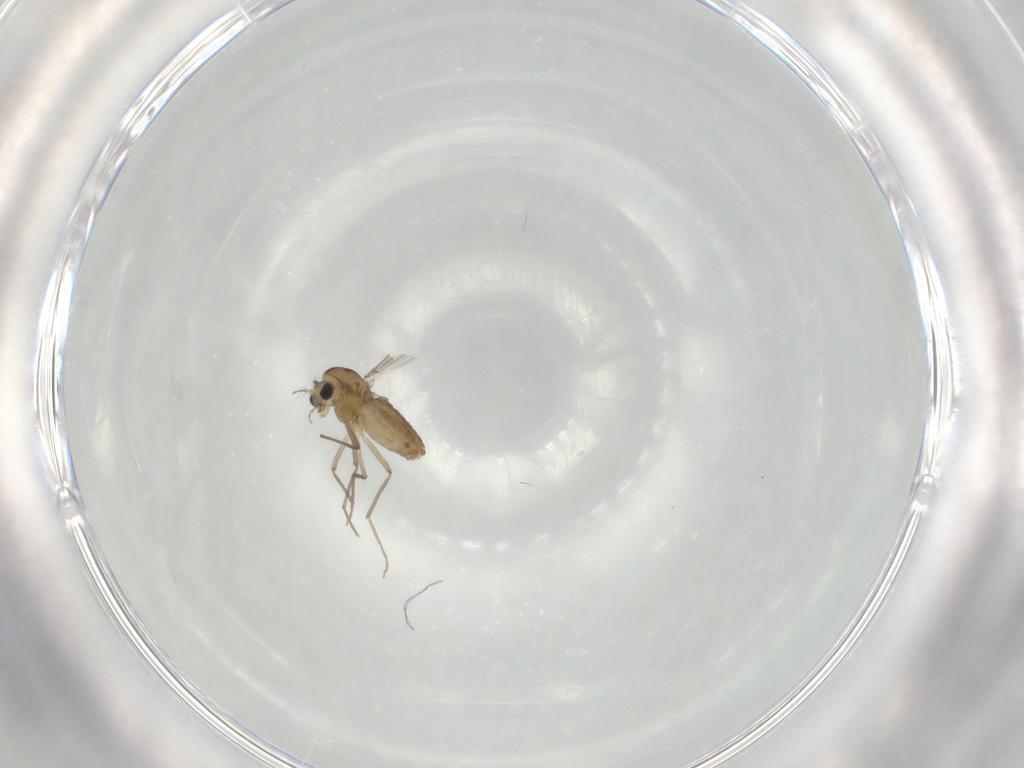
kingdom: Animalia
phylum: Arthropoda
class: Insecta
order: Diptera
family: Chironomidae
